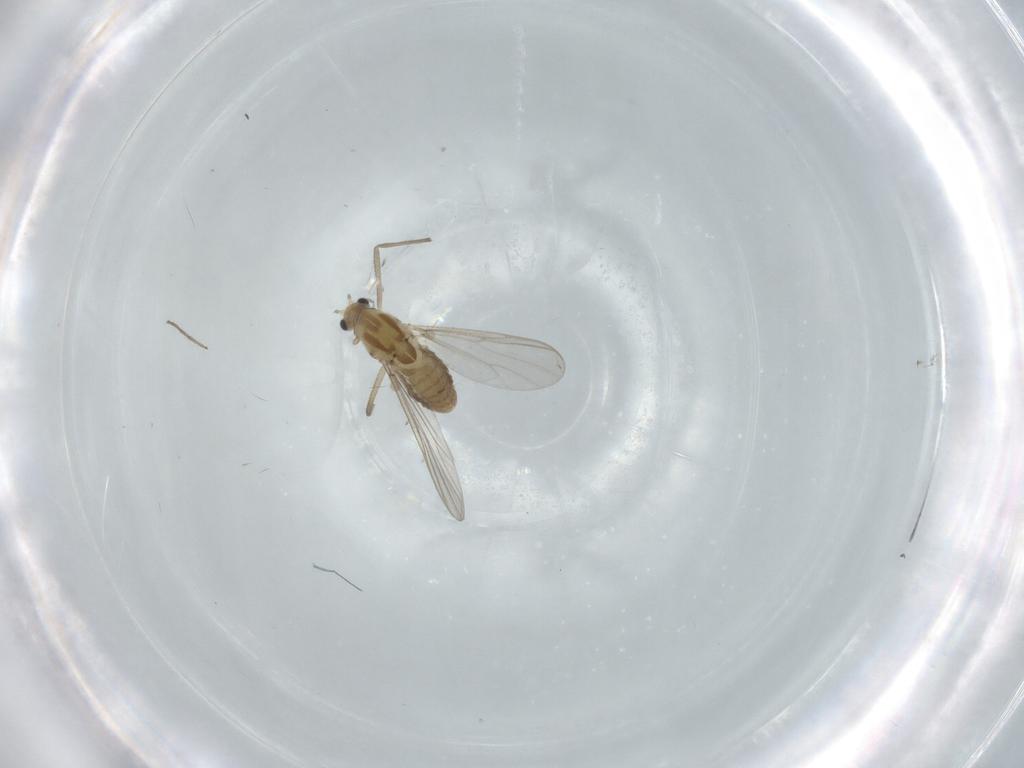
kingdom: Animalia
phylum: Arthropoda
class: Insecta
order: Diptera
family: Chironomidae
